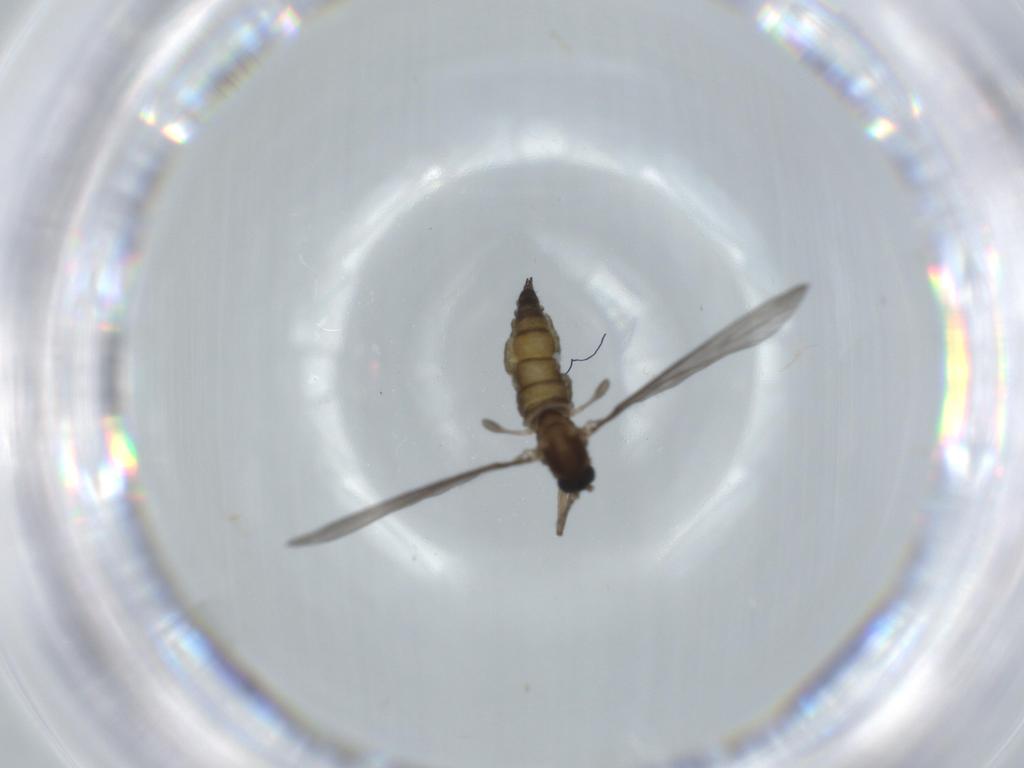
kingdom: Animalia
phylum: Arthropoda
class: Insecta
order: Diptera
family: Sciaridae
